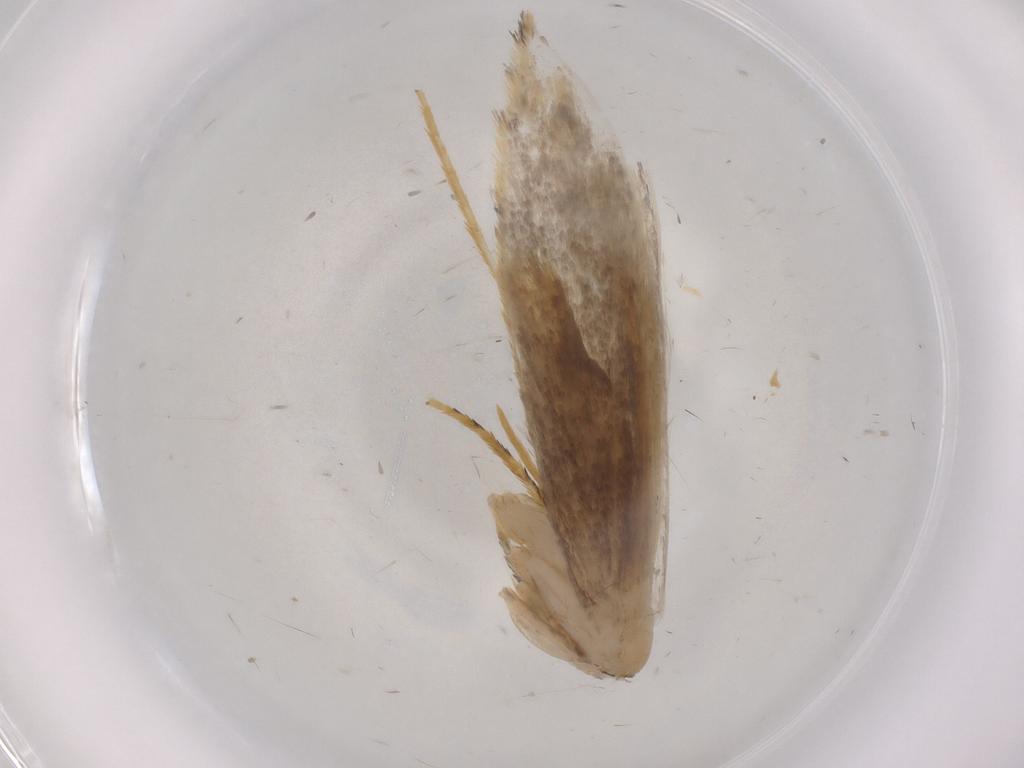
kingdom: Animalia
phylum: Arthropoda
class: Insecta
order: Lepidoptera
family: Tineidae
